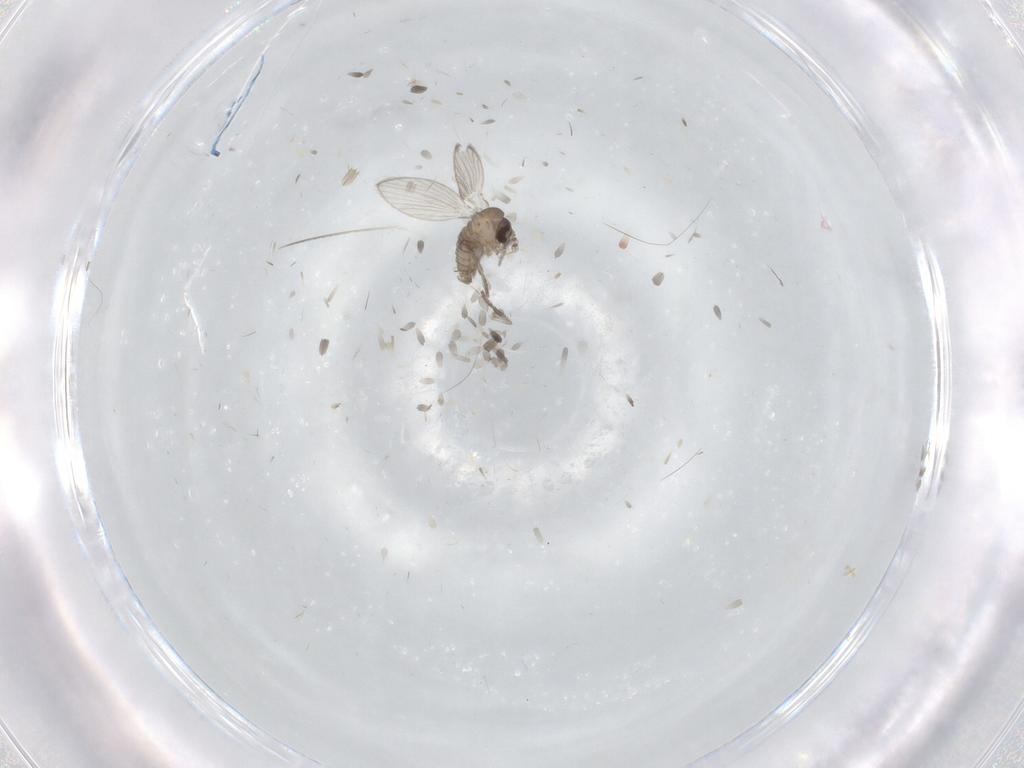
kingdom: Animalia
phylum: Arthropoda
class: Insecta
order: Diptera
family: Psychodidae
